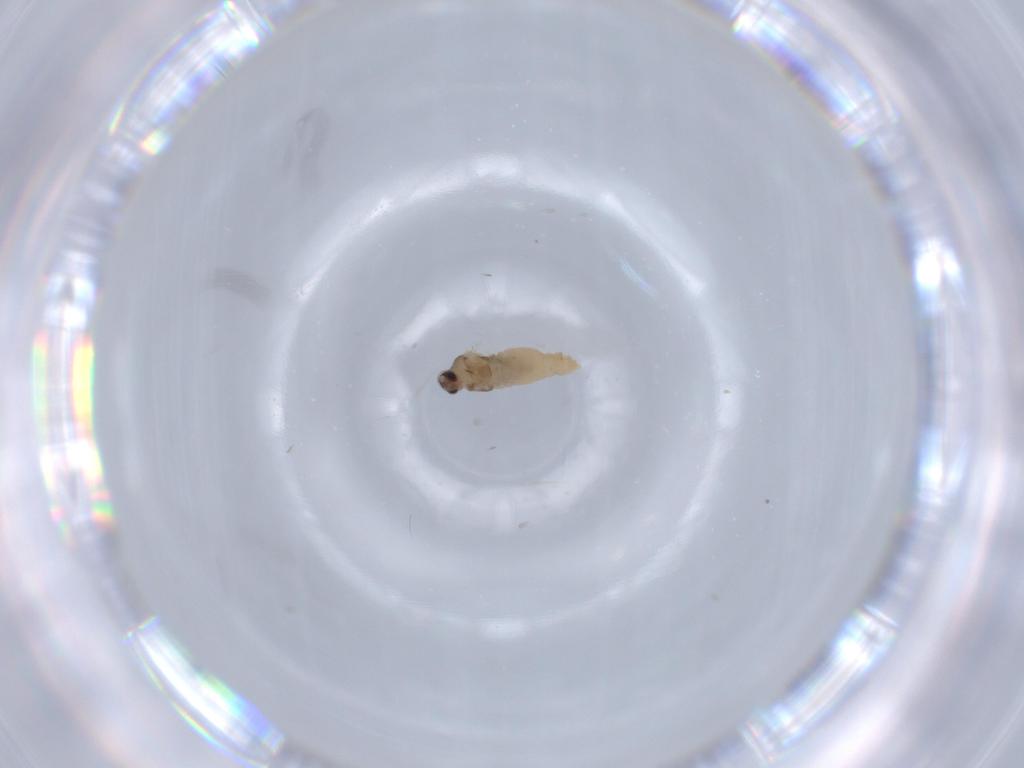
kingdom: Animalia
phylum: Arthropoda
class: Insecta
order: Diptera
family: Cecidomyiidae
